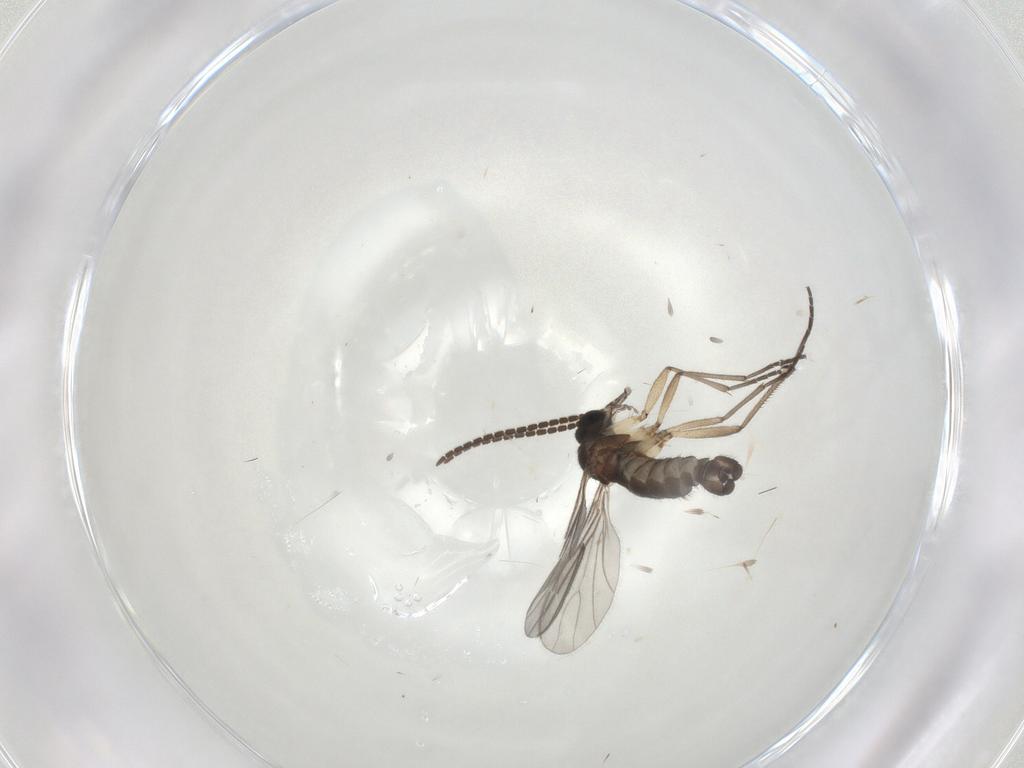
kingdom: Animalia
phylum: Arthropoda
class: Insecta
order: Diptera
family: Sciaridae
